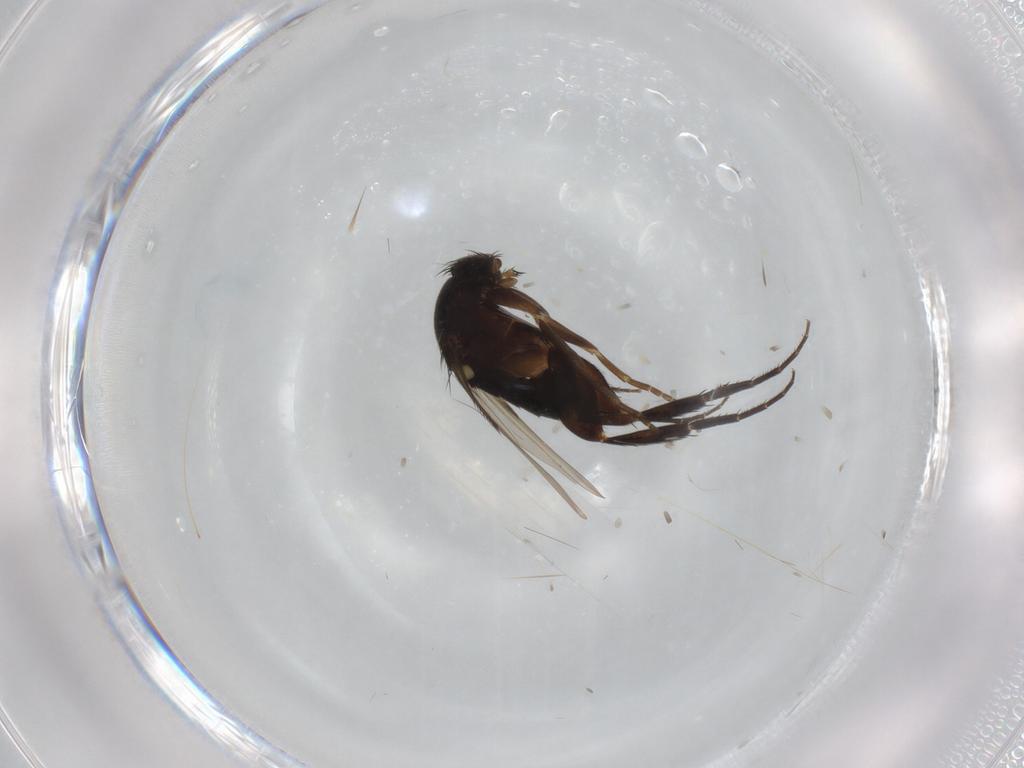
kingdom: Animalia
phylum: Arthropoda
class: Insecta
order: Diptera
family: Phoridae
